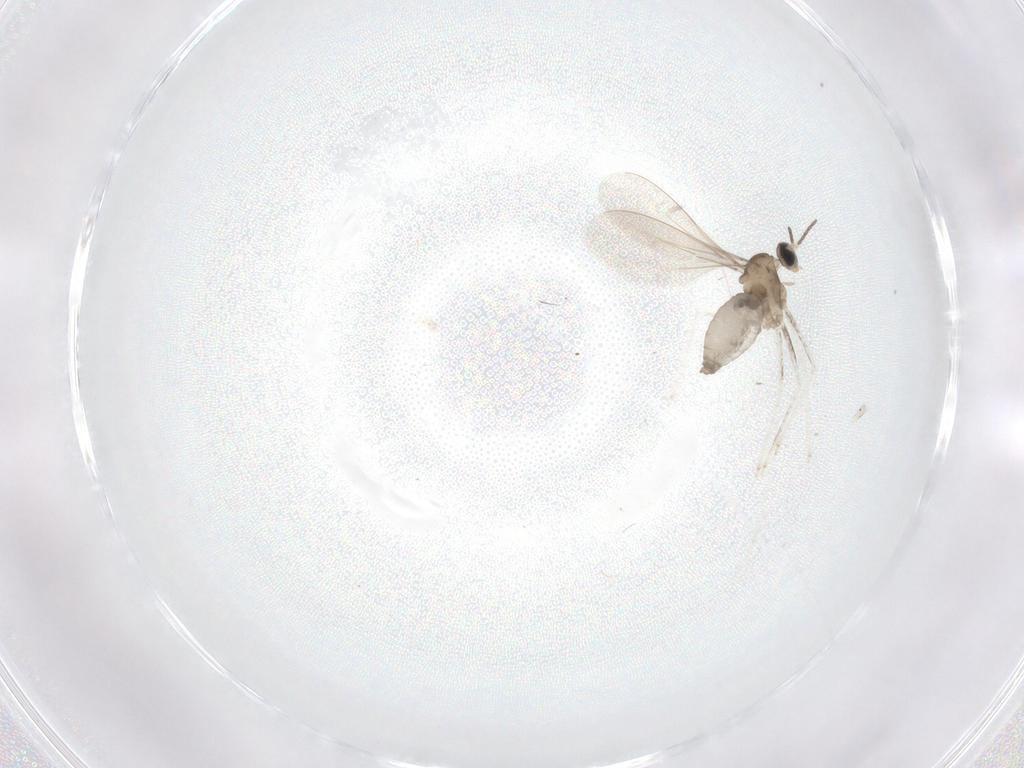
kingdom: Animalia
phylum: Arthropoda
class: Insecta
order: Diptera
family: Cecidomyiidae
